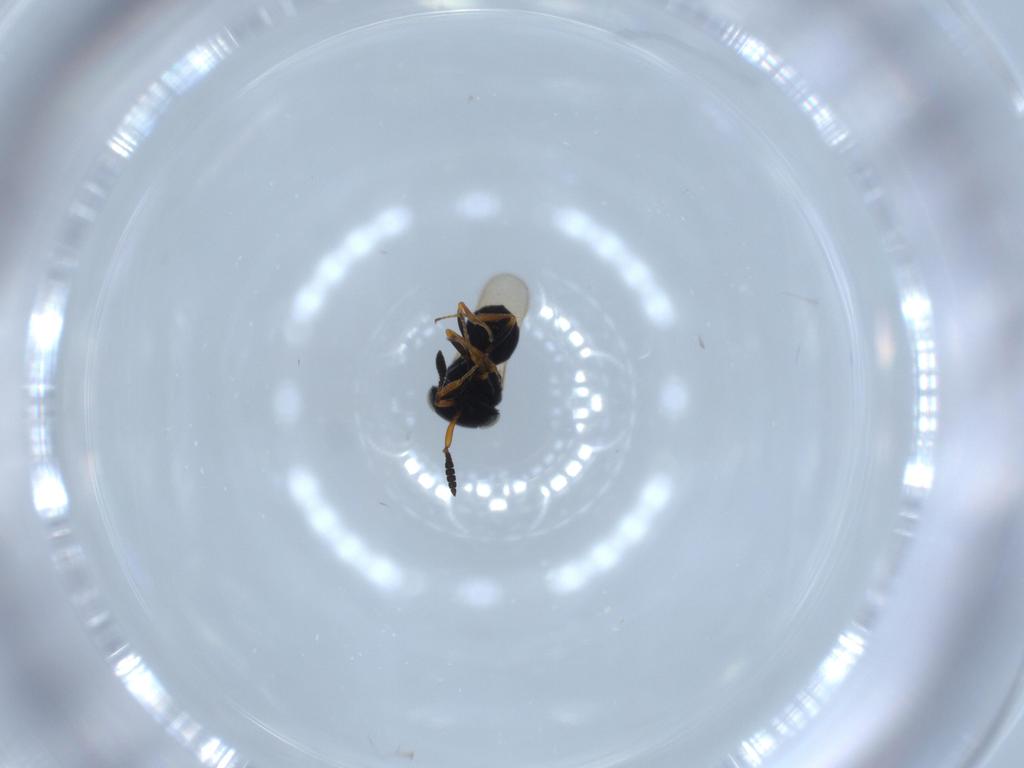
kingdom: Animalia
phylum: Arthropoda
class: Insecta
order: Hymenoptera
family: Scelionidae
